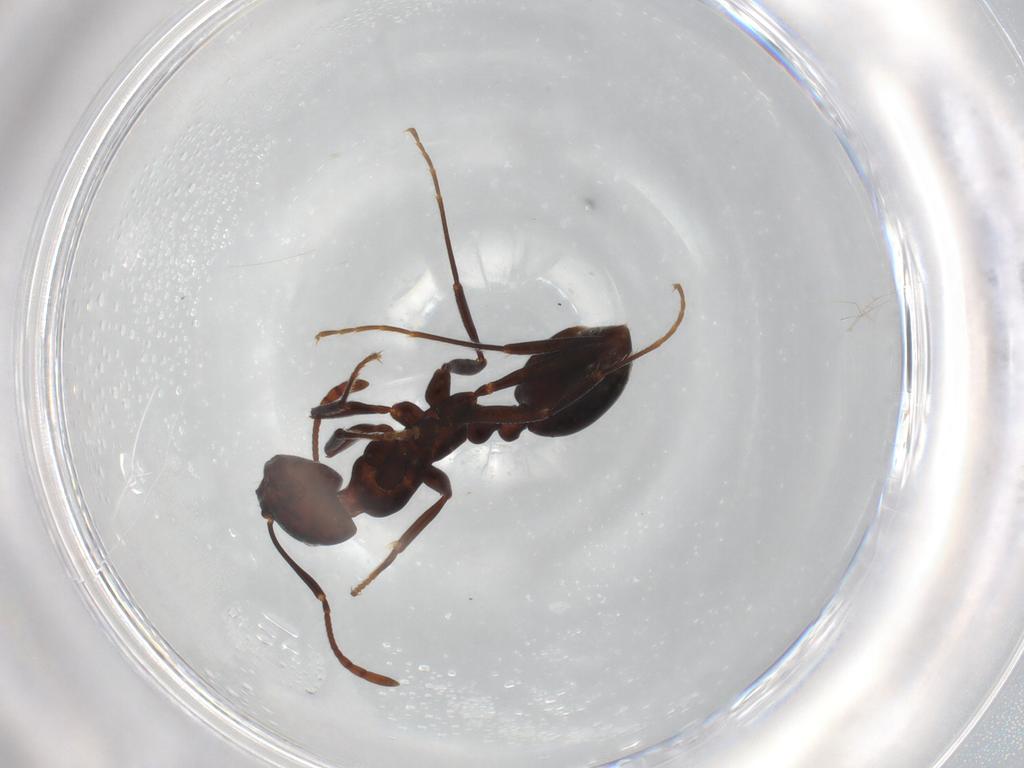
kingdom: Animalia
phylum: Arthropoda
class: Insecta
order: Hymenoptera
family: Formicidae
